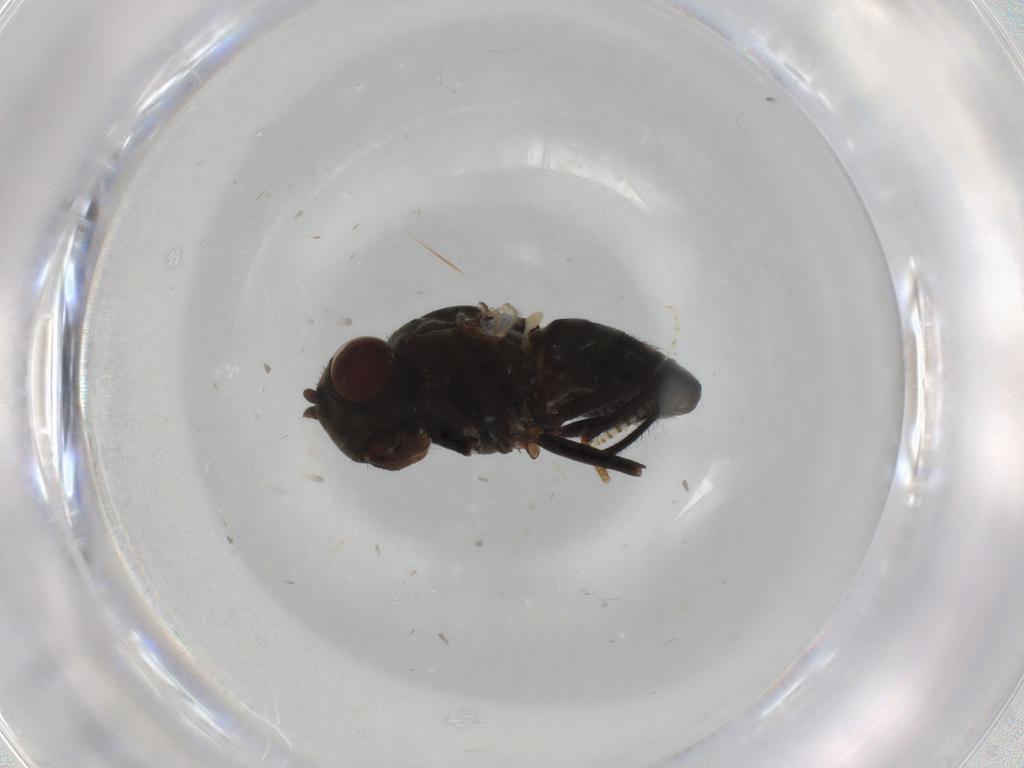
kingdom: Animalia
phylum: Arthropoda
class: Insecta
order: Diptera
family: Ephydridae
